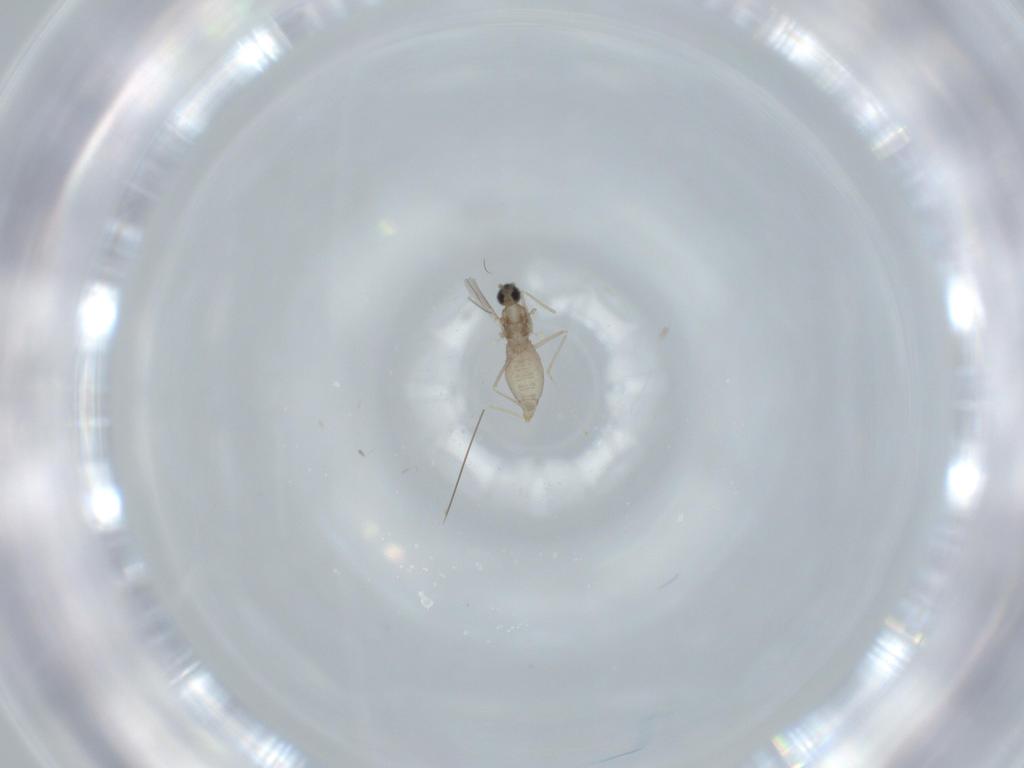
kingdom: Animalia
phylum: Arthropoda
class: Insecta
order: Diptera
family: Cecidomyiidae
